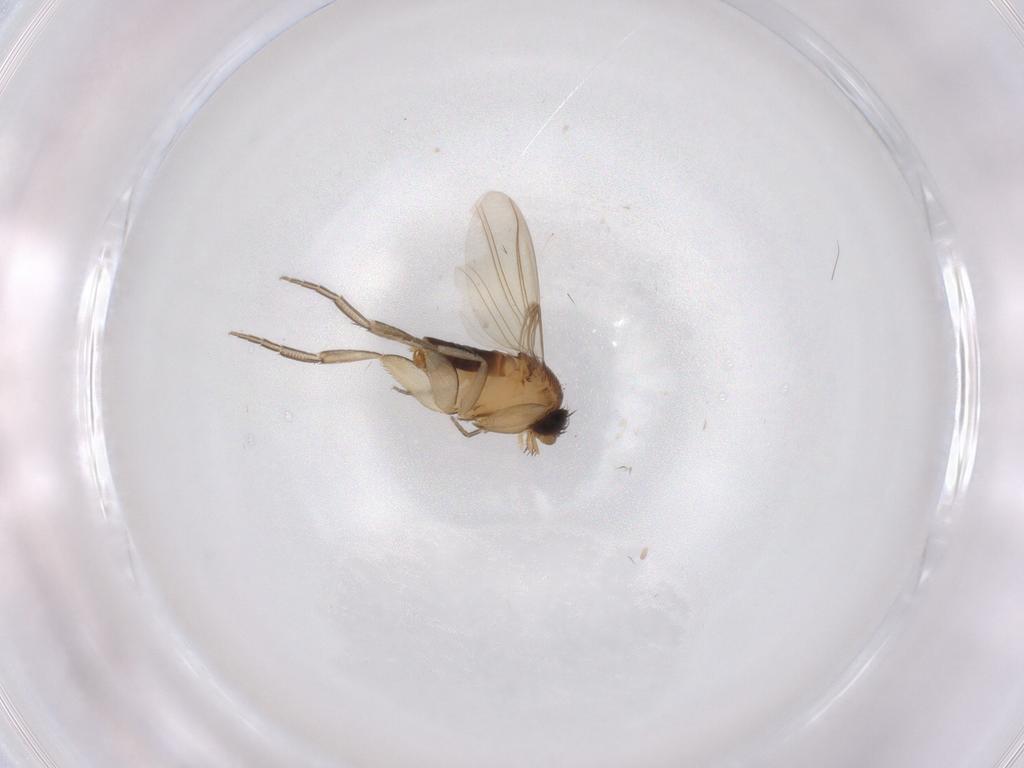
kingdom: Animalia
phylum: Arthropoda
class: Insecta
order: Diptera
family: Phoridae
